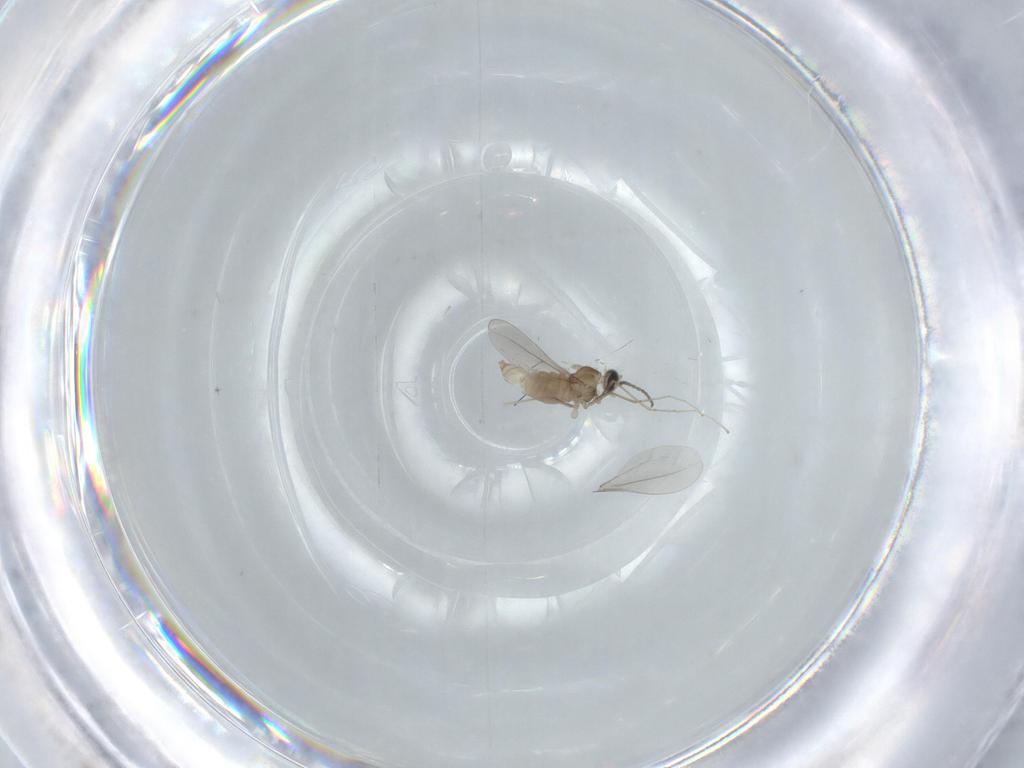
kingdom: Animalia
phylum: Arthropoda
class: Insecta
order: Diptera
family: Cecidomyiidae
